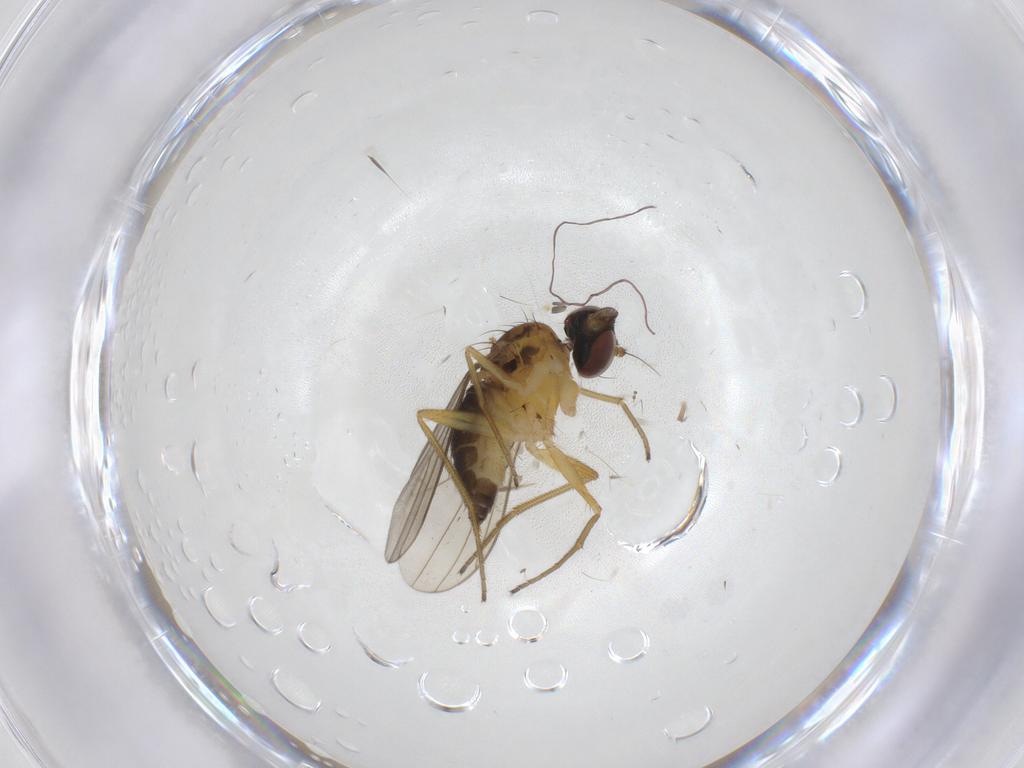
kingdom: Animalia
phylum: Arthropoda
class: Insecta
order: Diptera
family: Dolichopodidae
